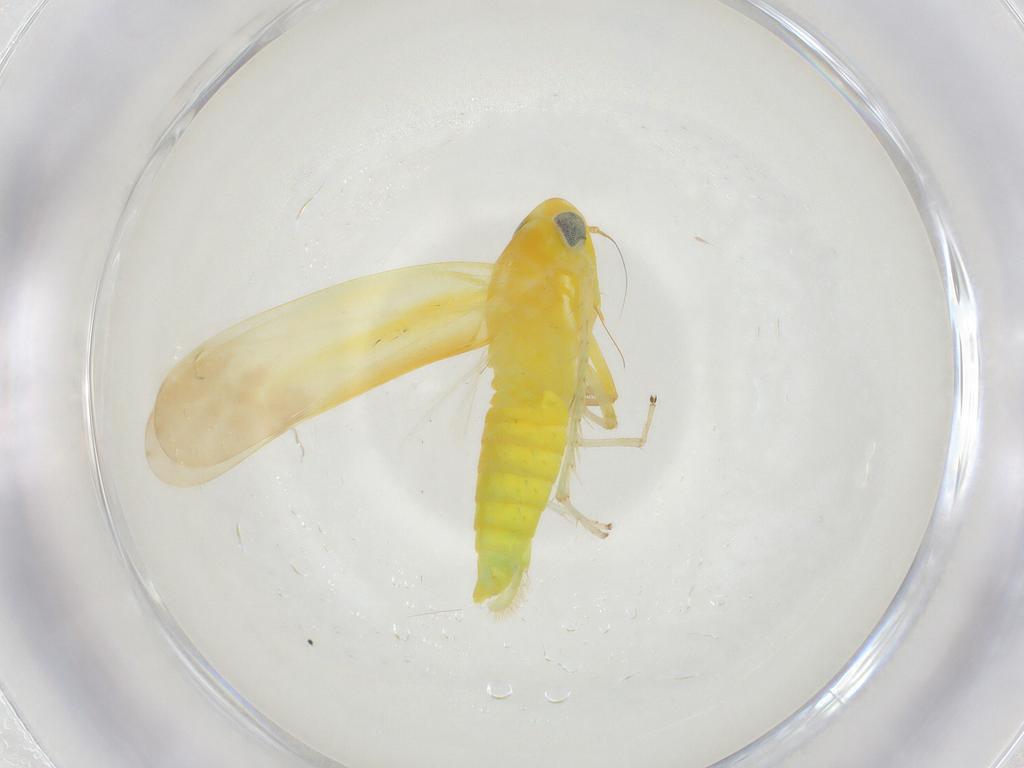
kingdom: Animalia
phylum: Arthropoda
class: Insecta
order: Hemiptera
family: Cicadellidae
